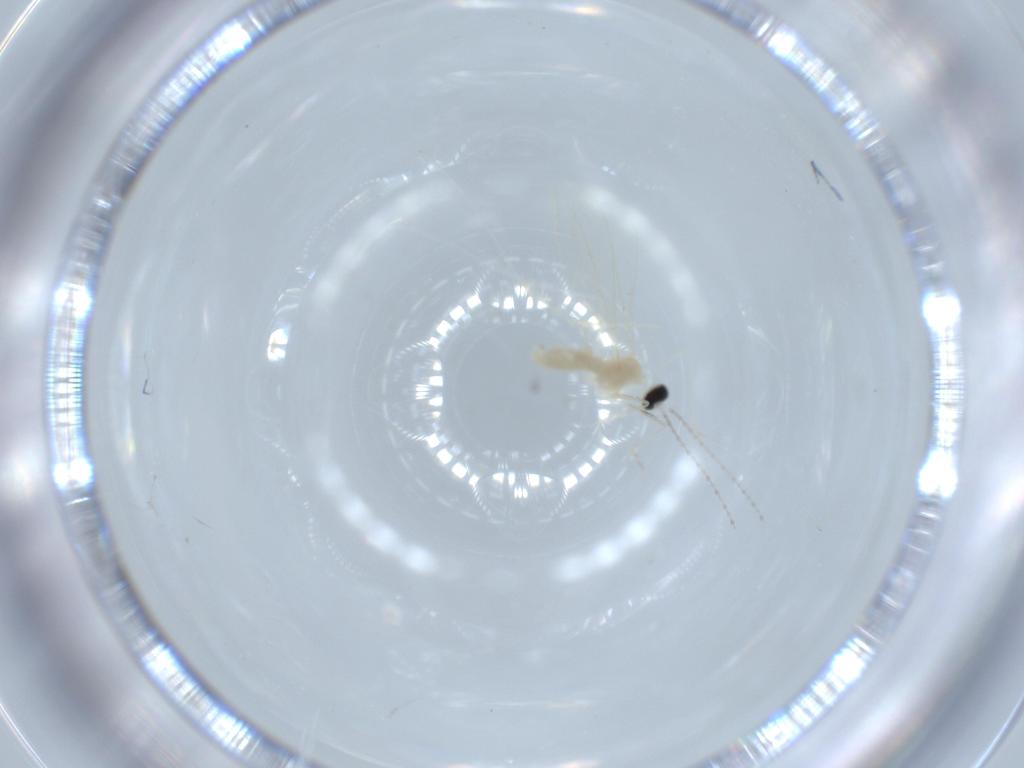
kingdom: Animalia
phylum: Arthropoda
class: Insecta
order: Diptera
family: Cecidomyiidae
